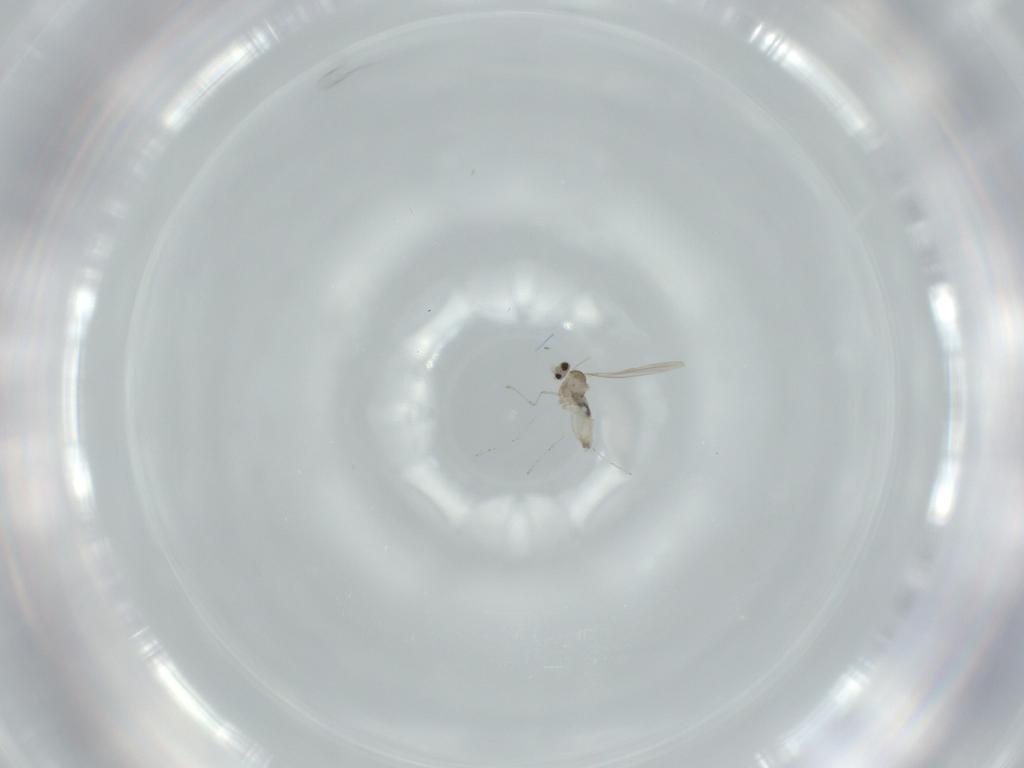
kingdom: Animalia
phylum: Arthropoda
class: Insecta
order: Diptera
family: Cecidomyiidae
